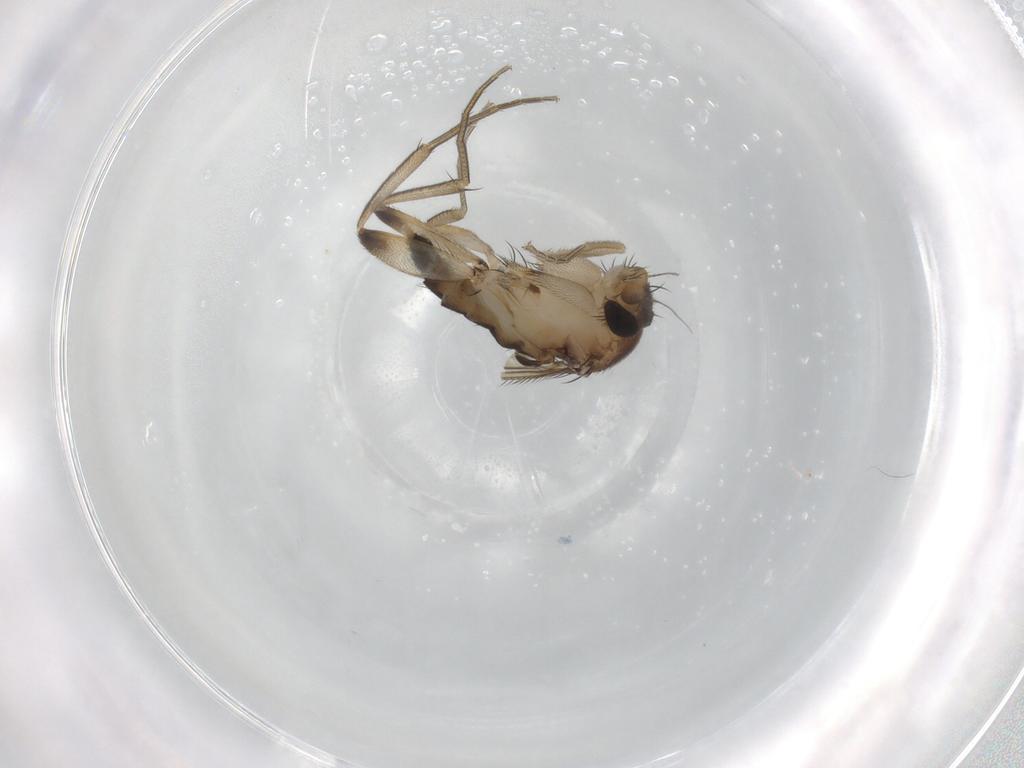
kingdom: Animalia
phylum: Arthropoda
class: Insecta
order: Diptera
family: Phoridae
